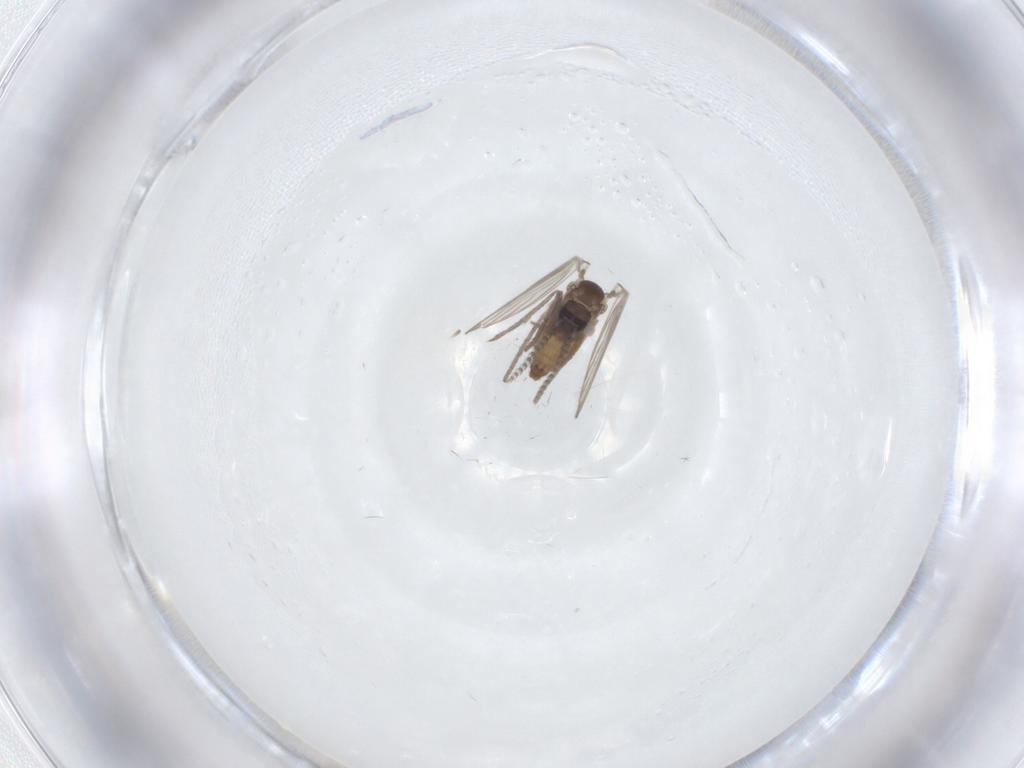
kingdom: Animalia
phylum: Arthropoda
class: Insecta
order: Diptera
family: Psychodidae
